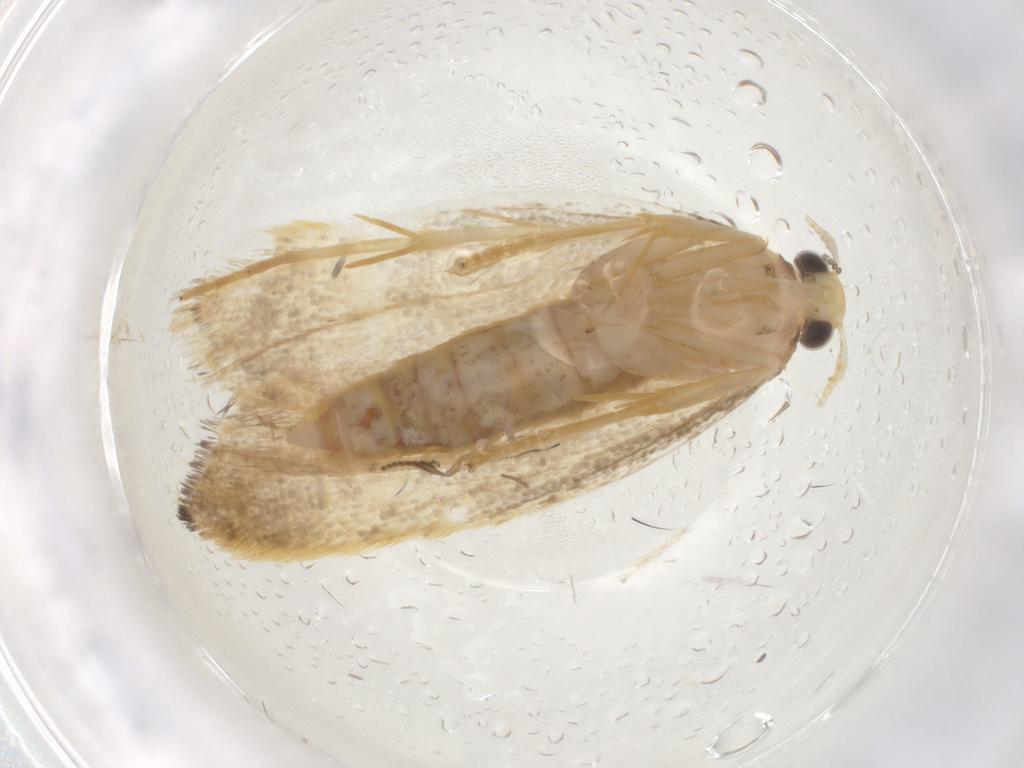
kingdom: Animalia
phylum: Arthropoda
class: Insecta
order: Lepidoptera
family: Lecithoceridae
